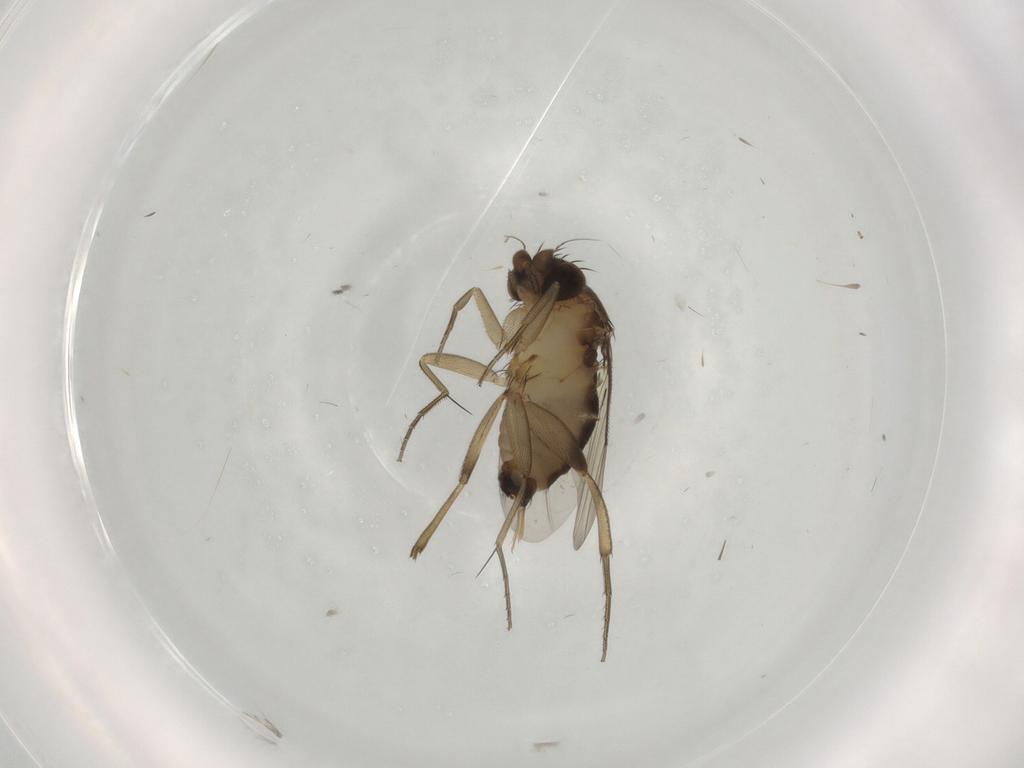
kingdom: Animalia
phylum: Arthropoda
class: Insecta
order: Diptera
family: Phoridae
